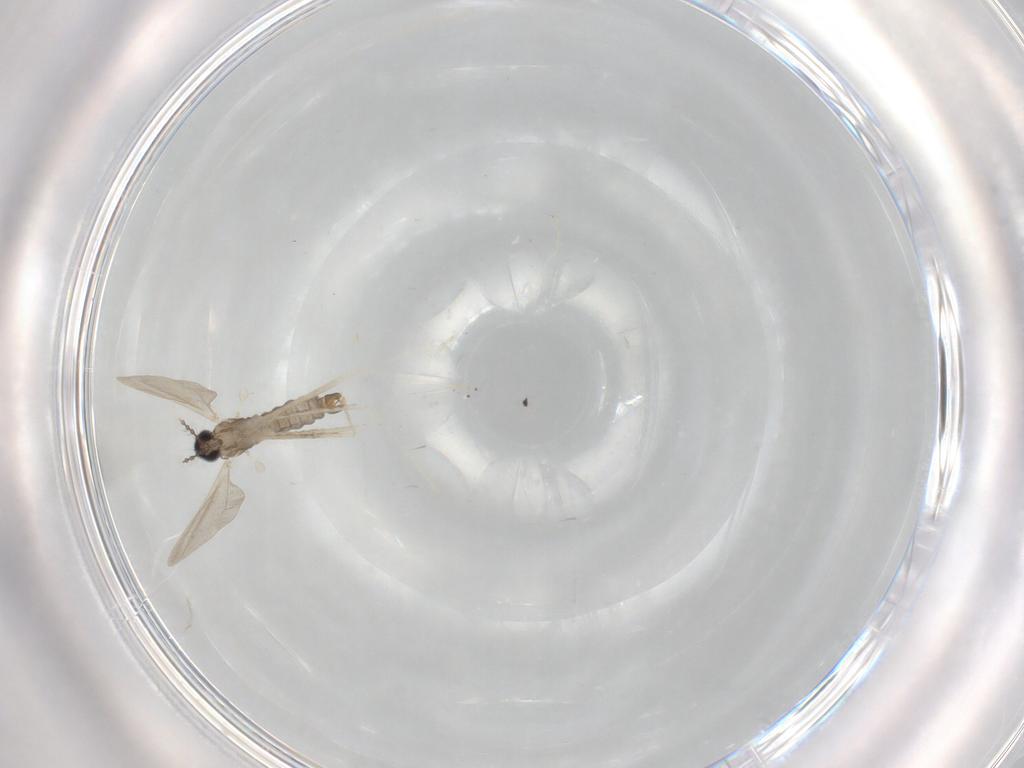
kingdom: Animalia
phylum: Arthropoda
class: Insecta
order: Diptera
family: Cecidomyiidae
